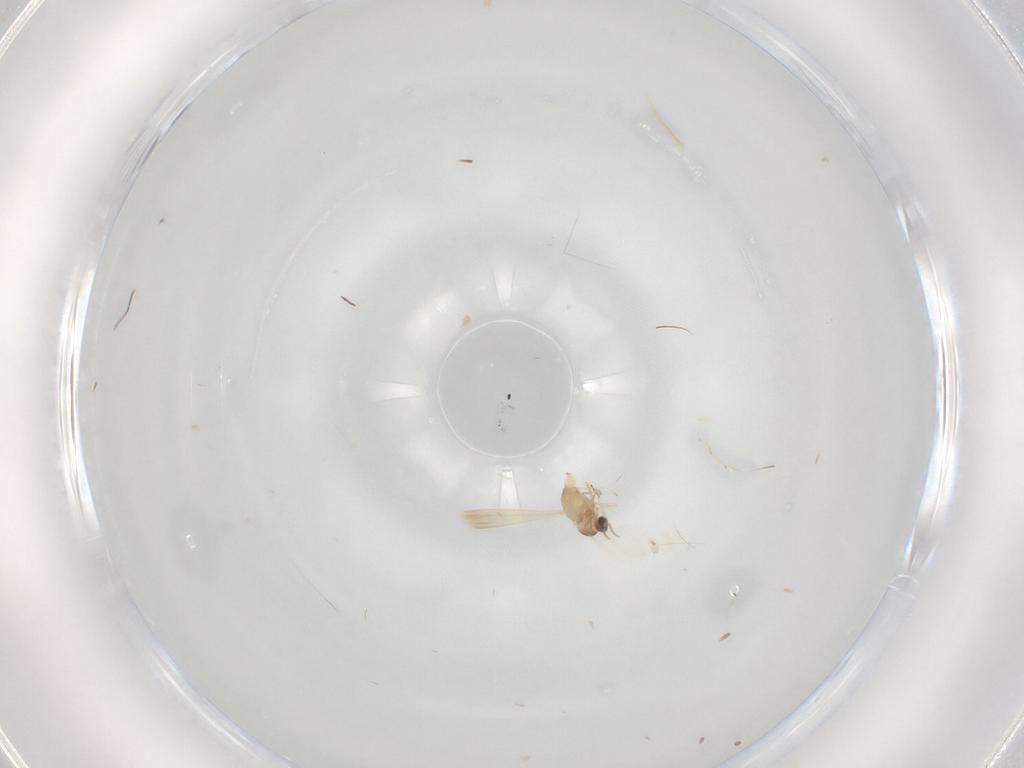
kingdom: Animalia
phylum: Arthropoda
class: Insecta
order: Diptera
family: Cecidomyiidae
